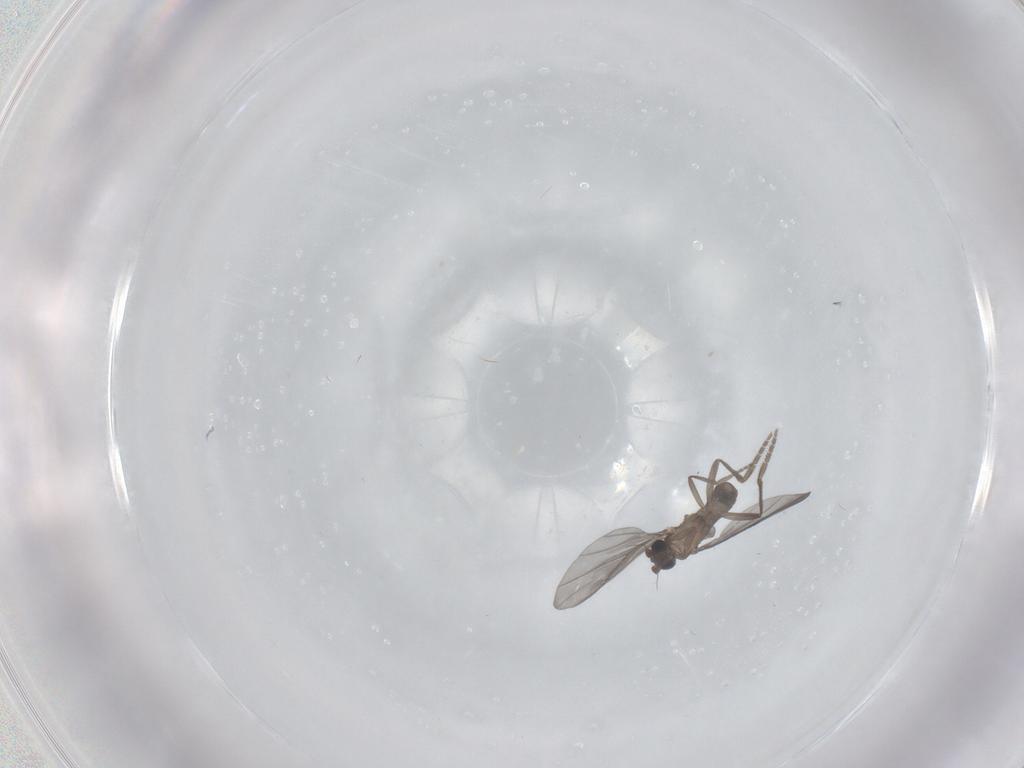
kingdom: Animalia
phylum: Arthropoda
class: Insecta
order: Diptera
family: Phoridae
